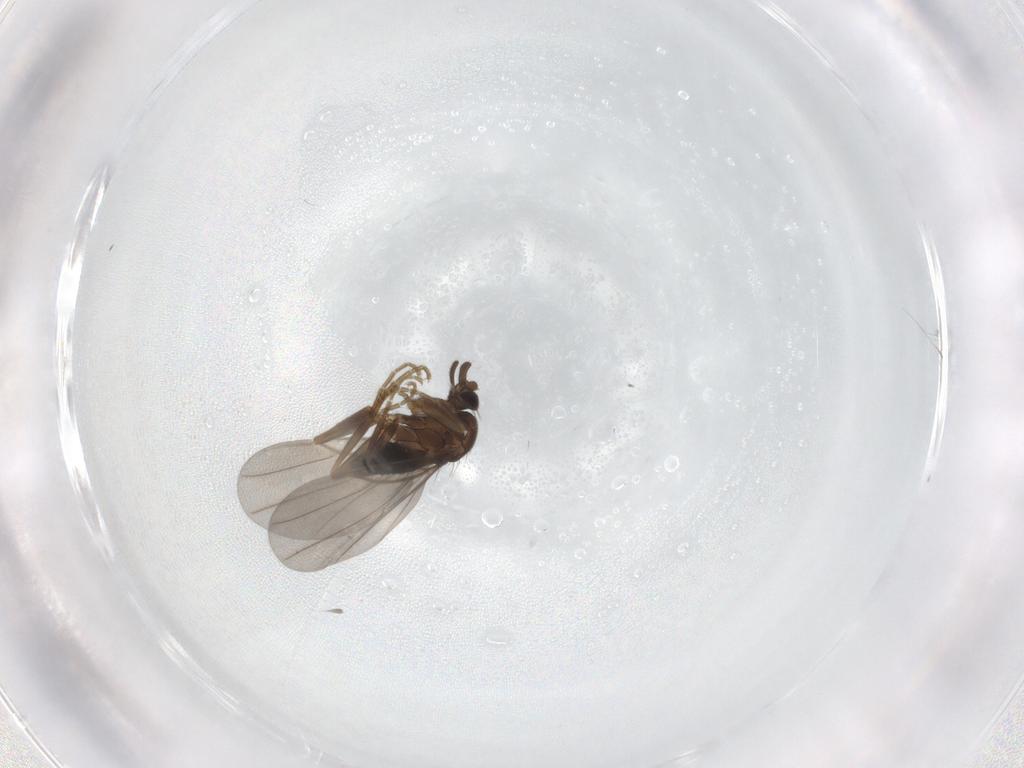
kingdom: Animalia
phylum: Arthropoda
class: Insecta
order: Diptera
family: Phoridae
